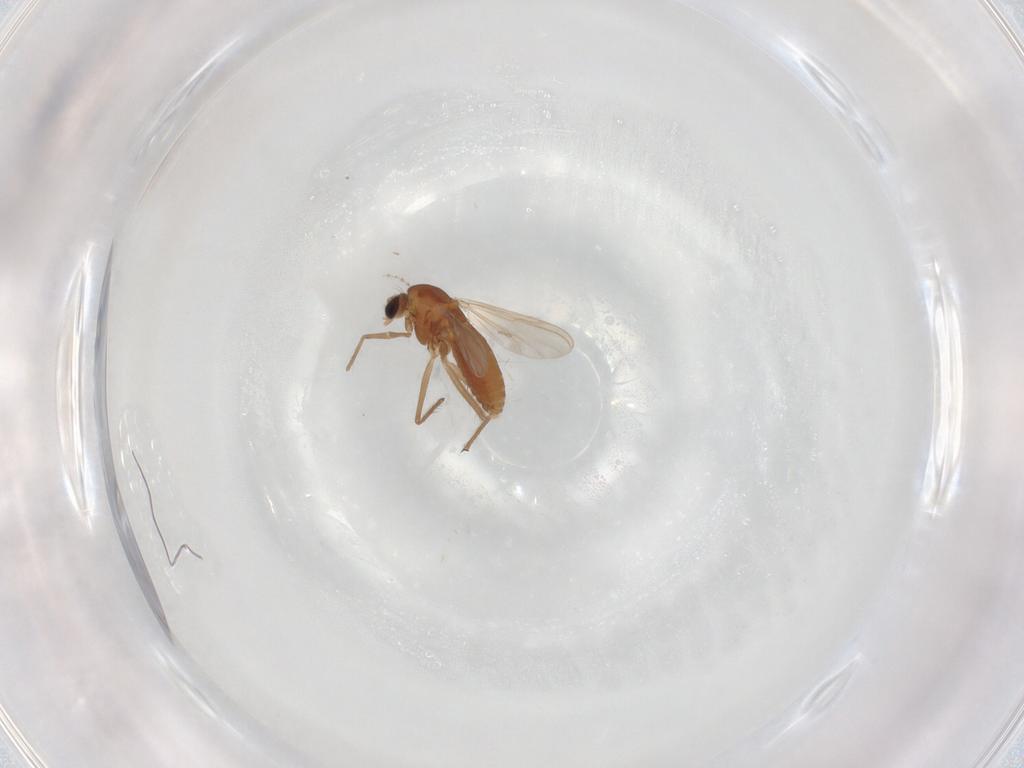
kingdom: Animalia
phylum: Arthropoda
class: Insecta
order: Diptera
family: Chironomidae
